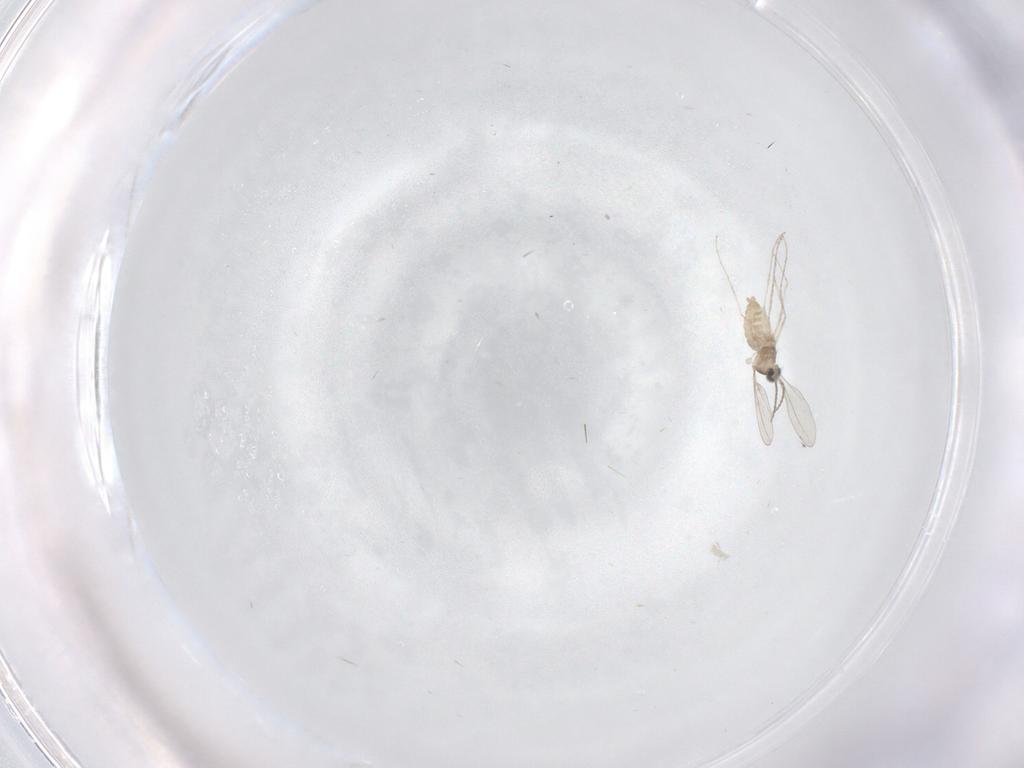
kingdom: Animalia
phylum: Arthropoda
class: Insecta
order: Diptera
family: Cecidomyiidae
